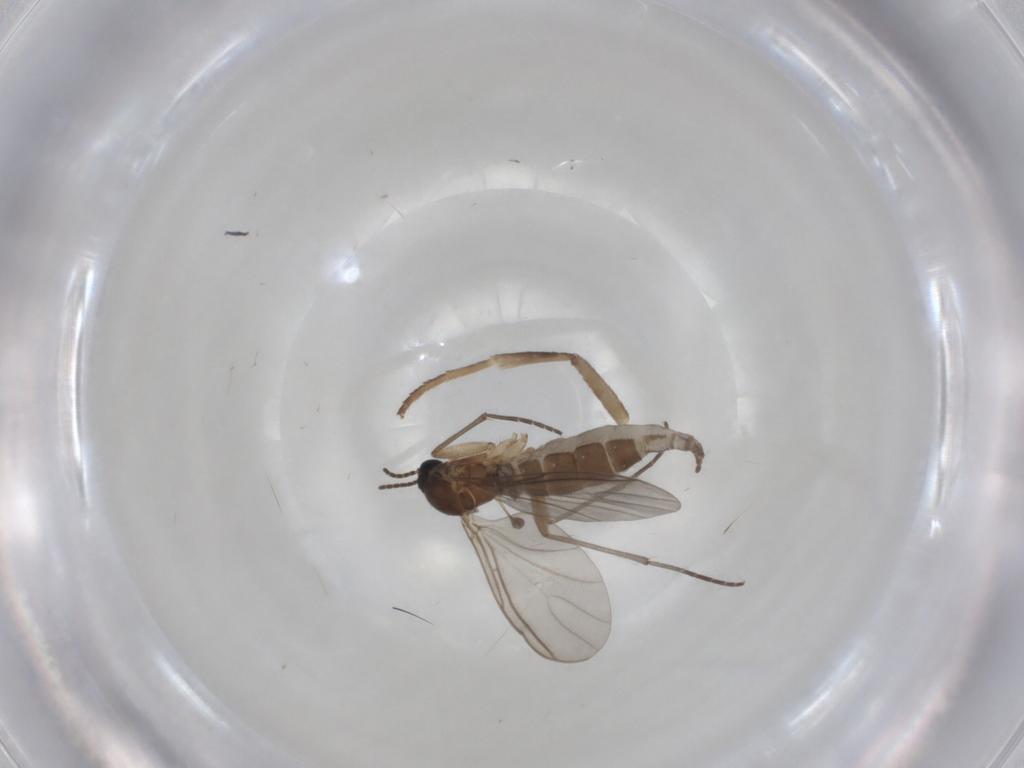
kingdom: Animalia
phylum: Arthropoda
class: Insecta
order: Diptera
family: Sciaridae
